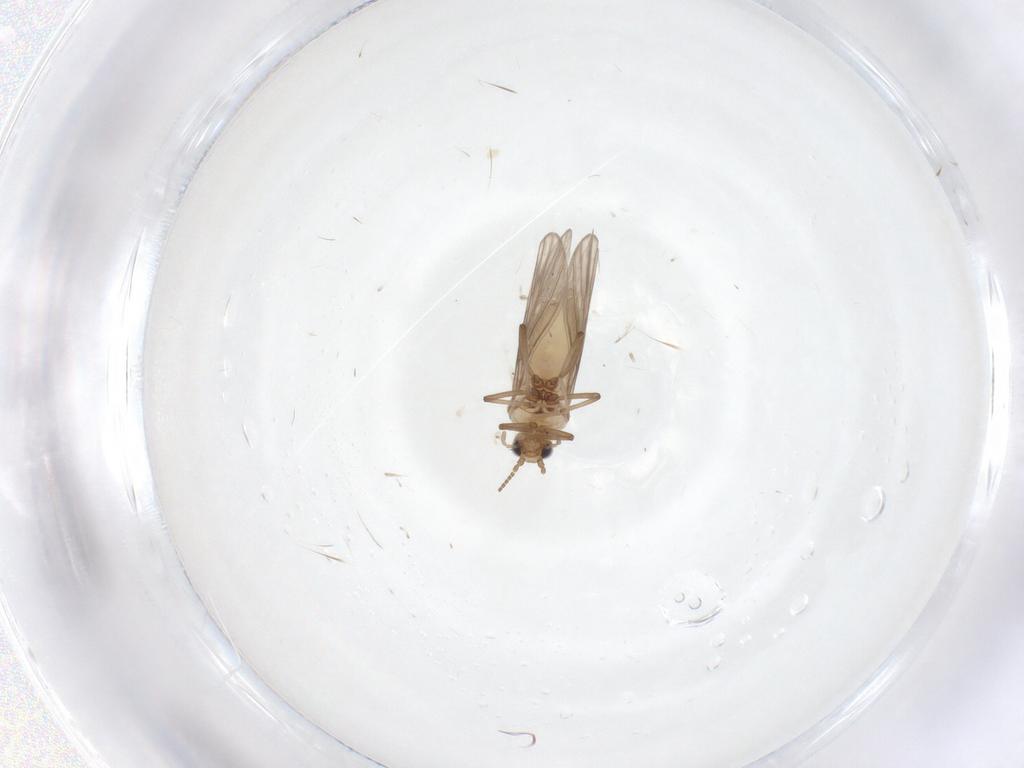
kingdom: Animalia
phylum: Arthropoda
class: Insecta
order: Neuroptera
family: Coniopterygidae
